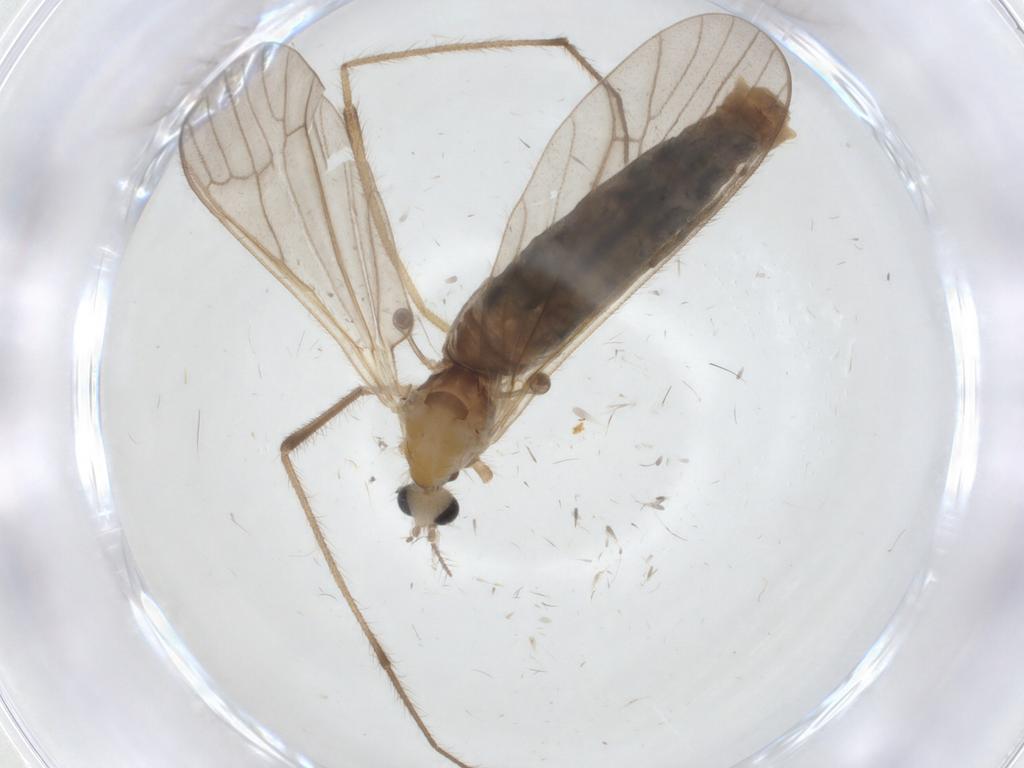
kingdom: Animalia
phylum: Arthropoda
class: Insecta
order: Diptera
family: Limoniidae
